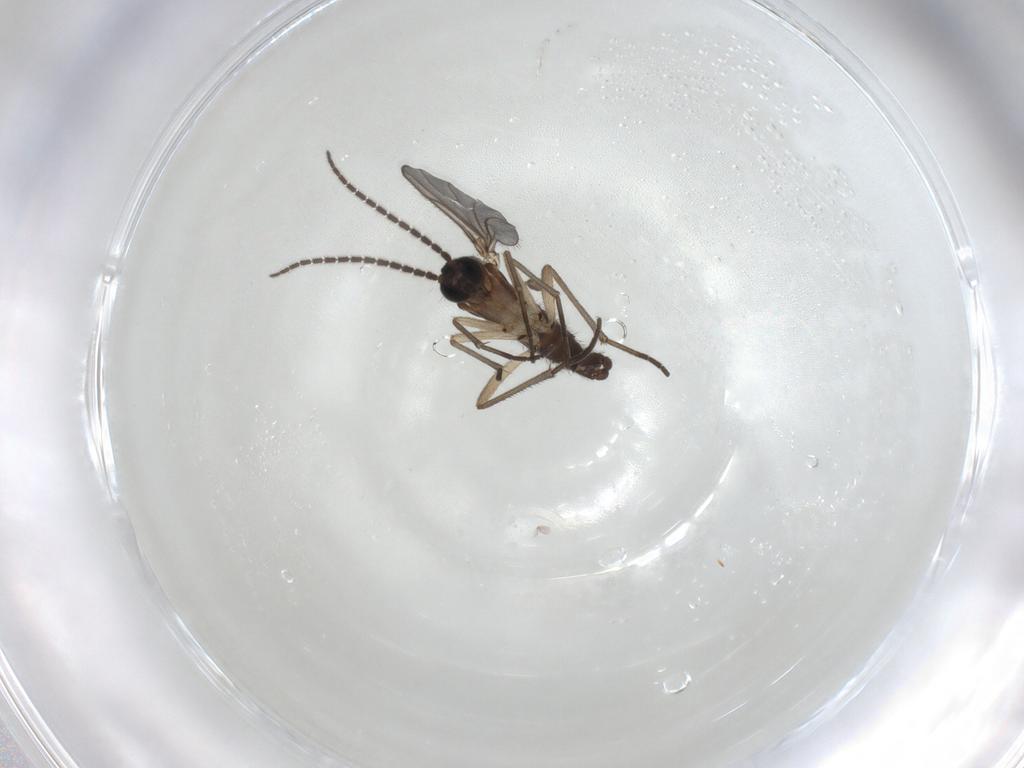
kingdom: Animalia
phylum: Arthropoda
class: Insecta
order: Diptera
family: Sciaridae
